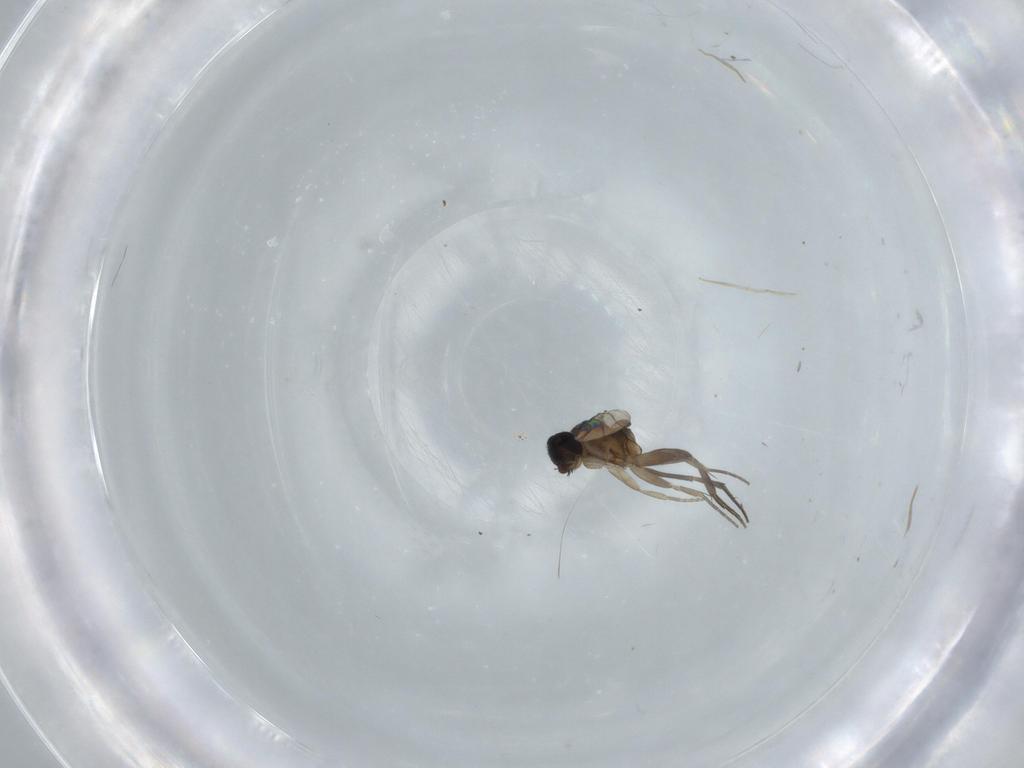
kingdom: Animalia
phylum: Arthropoda
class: Insecta
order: Diptera
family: Phoridae
